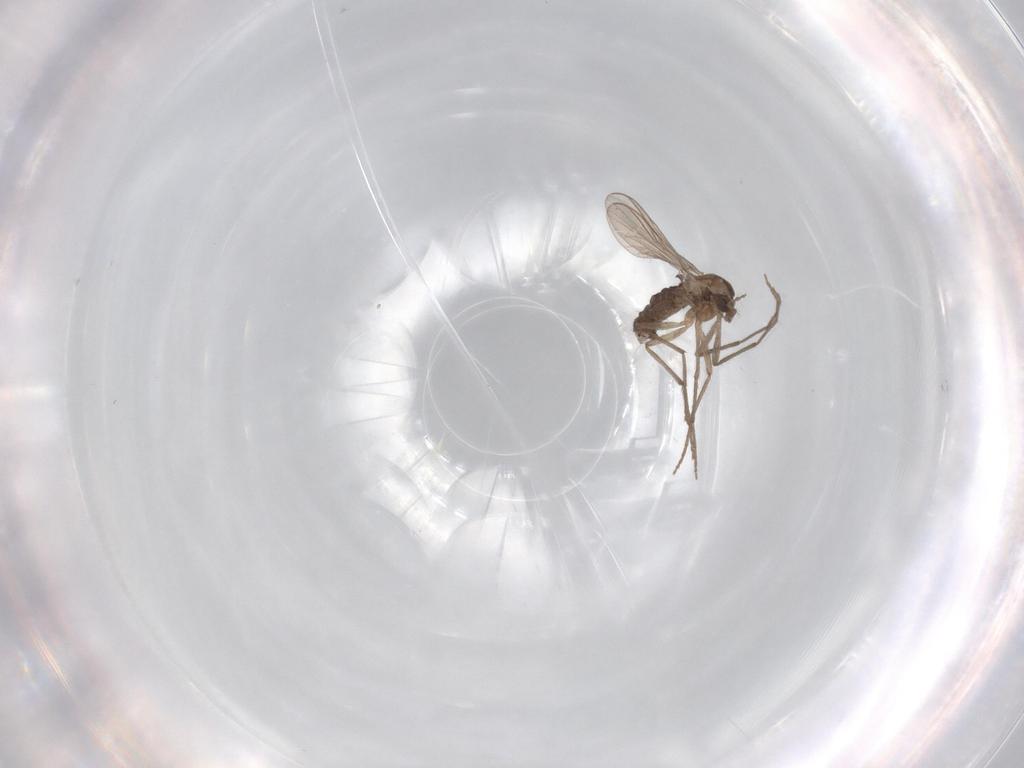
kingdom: Animalia
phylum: Arthropoda
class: Insecta
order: Diptera
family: Chironomidae
